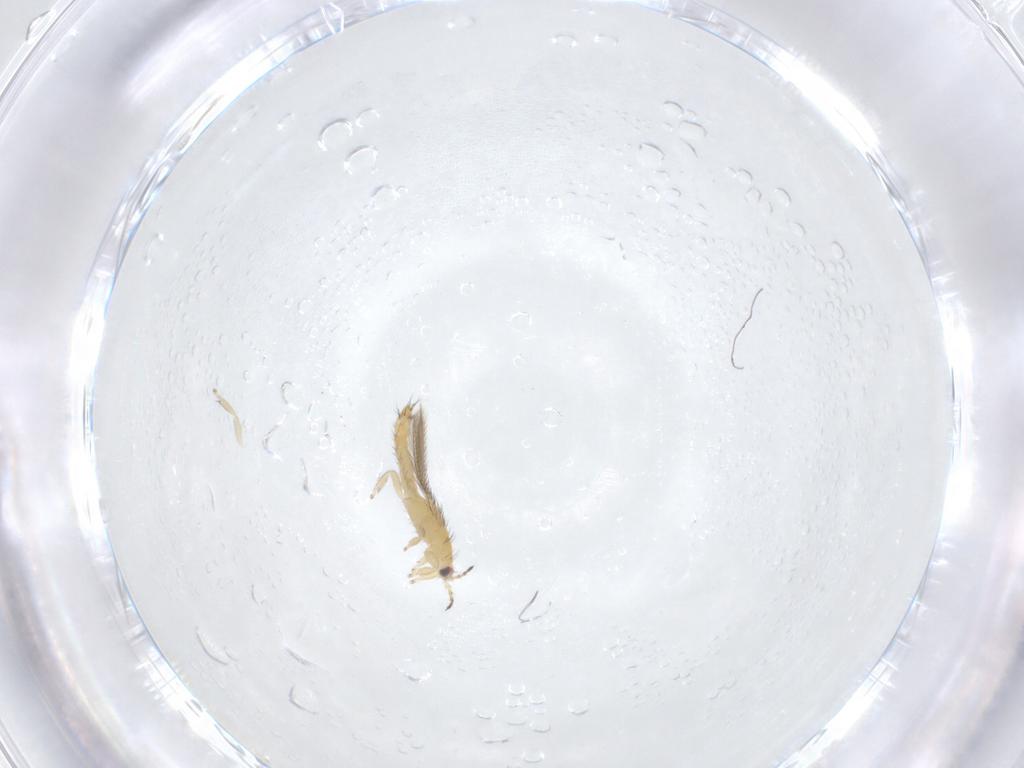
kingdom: Animalia
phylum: Arthropoda
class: Insecta
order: Thysanoptera
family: Thripidae
